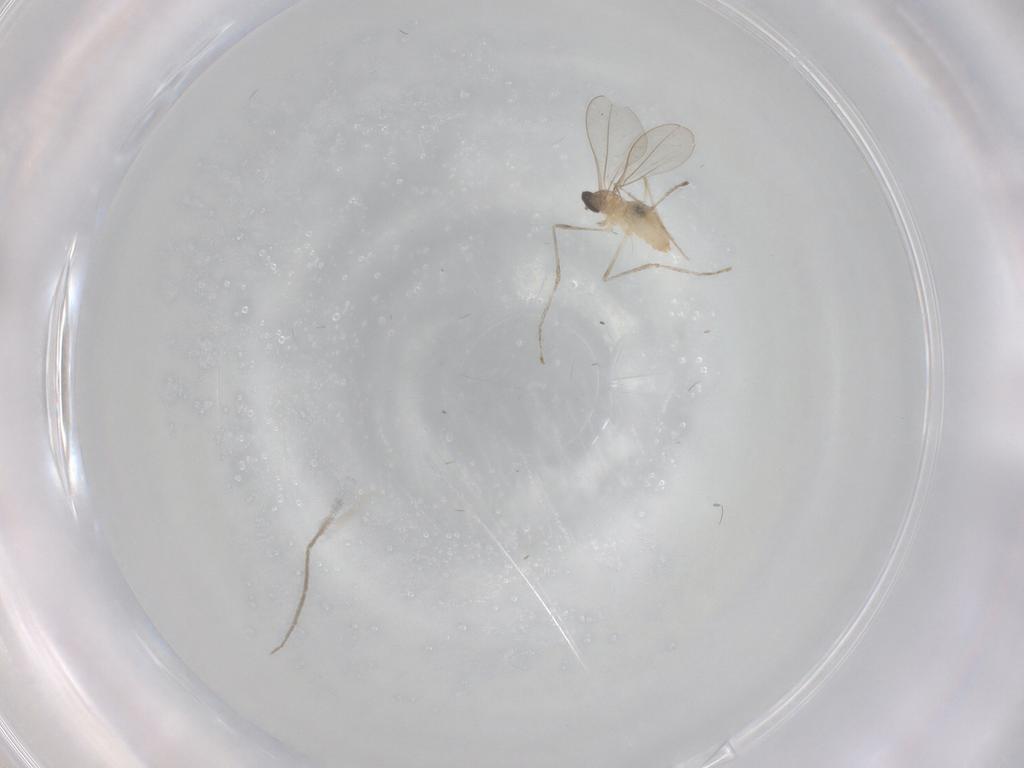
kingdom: Animalia
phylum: Arthropoda
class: Insecta
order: Diptera
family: Cecidomyiidae
